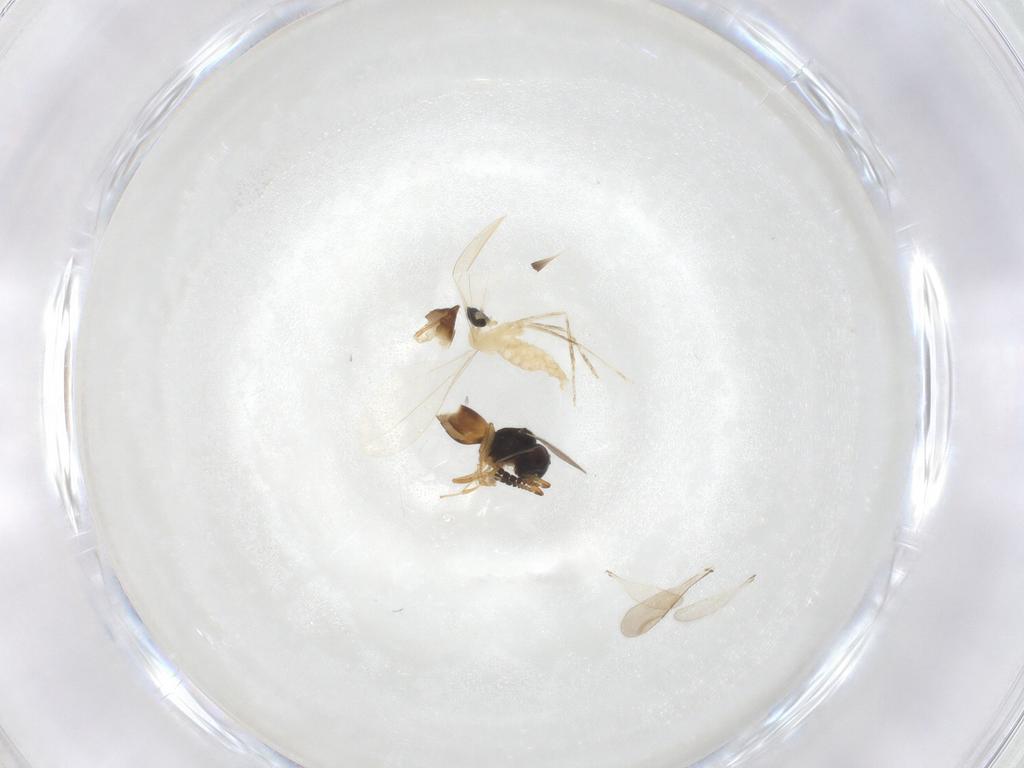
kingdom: Animalia
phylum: Arthropoda
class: Insecta
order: Diptera
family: Cecidomyiidae
